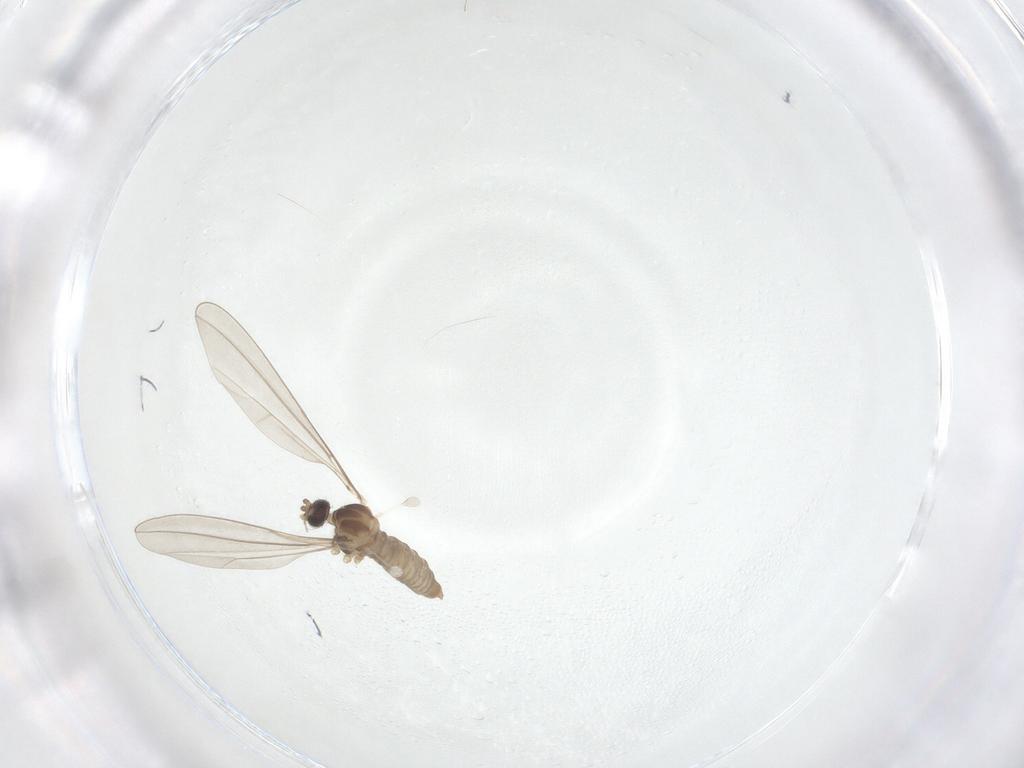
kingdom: Animalia
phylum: Arthropoda
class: Insecta
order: Diptera
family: Cecidomyiidae
